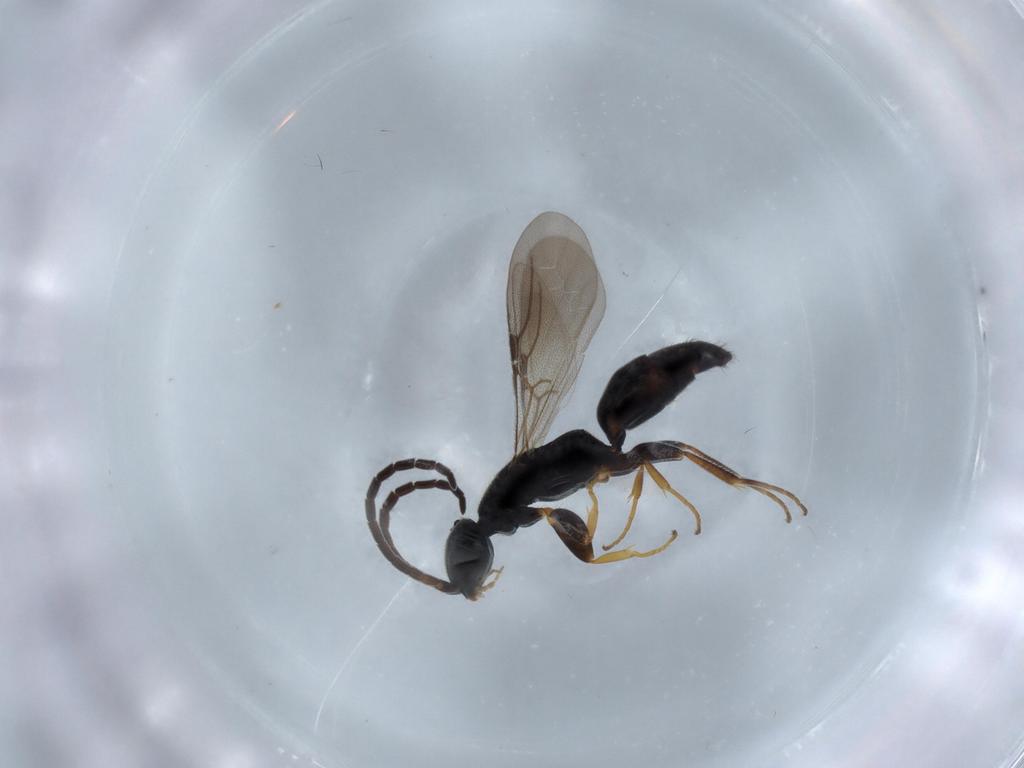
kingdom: Animalia
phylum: Arthropoda
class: Insecta
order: Hymenoptera
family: Bethylidae
